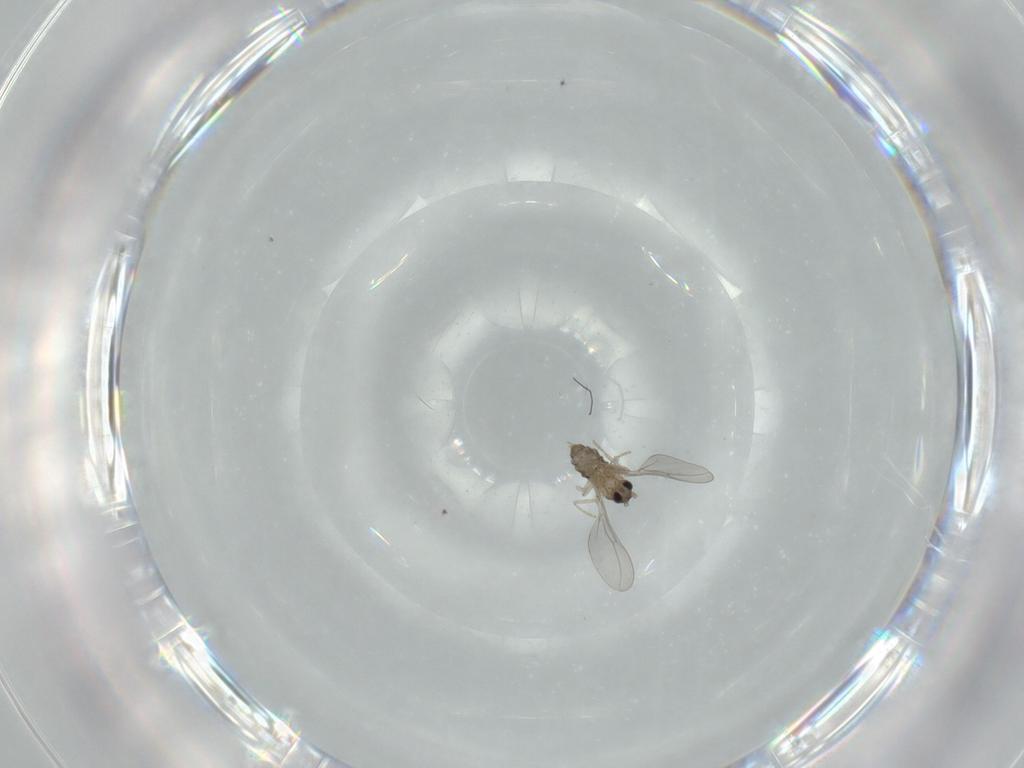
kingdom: Animalia
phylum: Arthropoda
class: Insecta
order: Diptera
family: Cecidomyiidae
